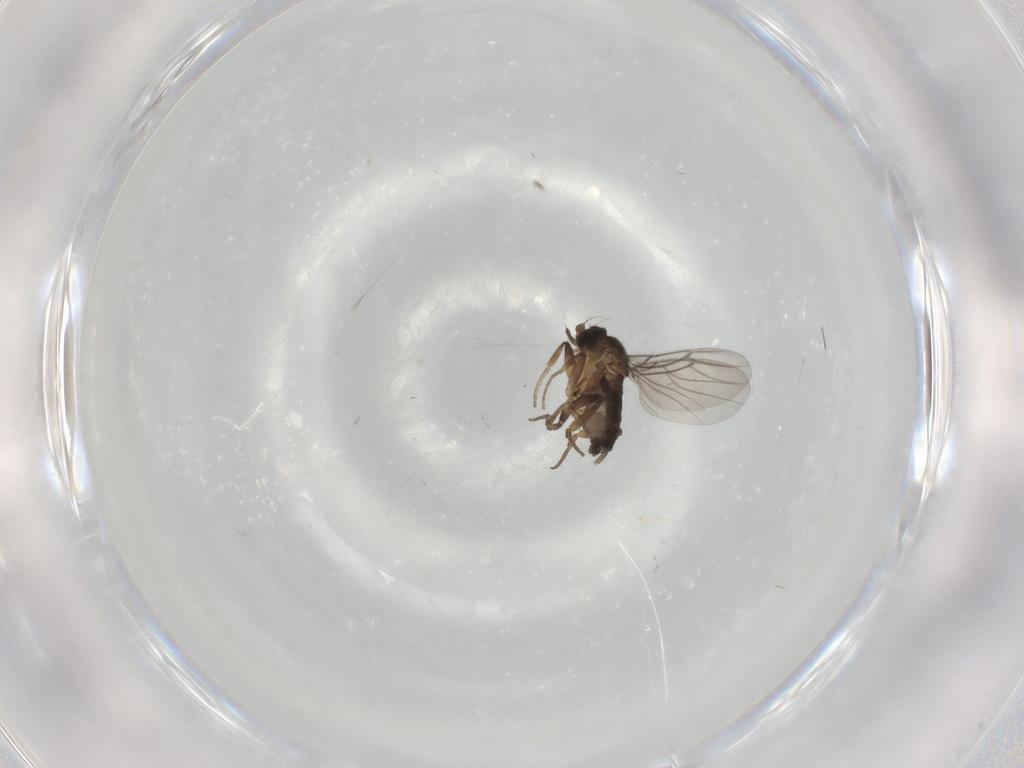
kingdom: Animalia
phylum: Arthropoda
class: Insecta
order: Diptera
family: Phoridae
